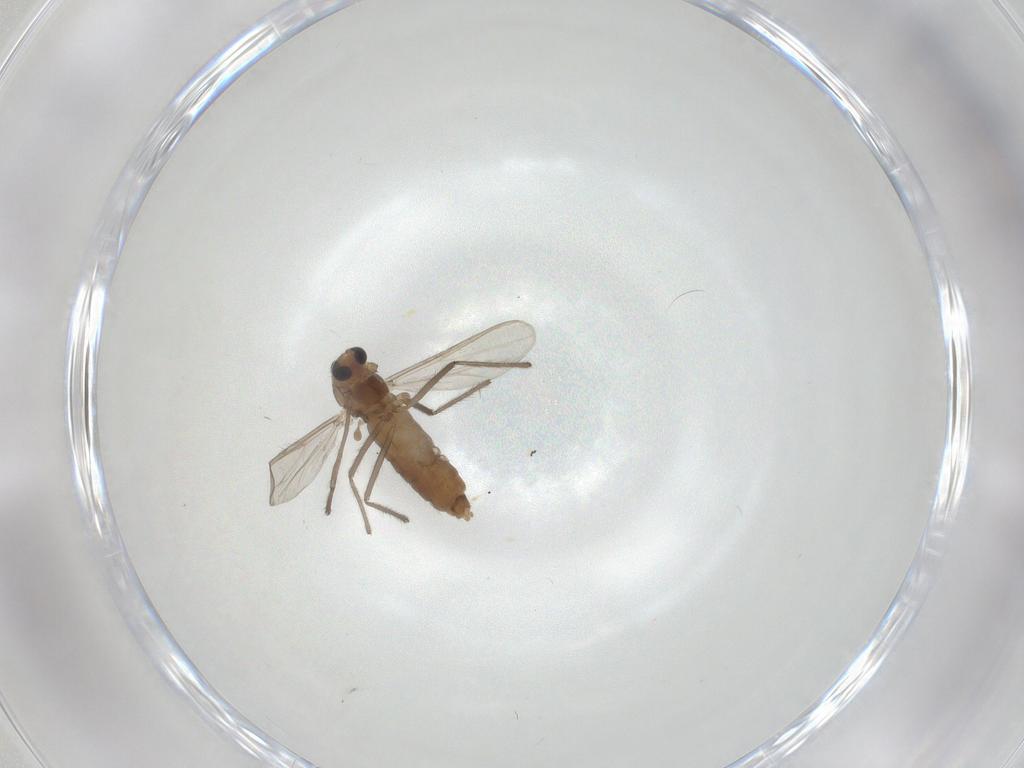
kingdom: Animalia
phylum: Arthropoda
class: Insecta
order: Diptera
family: Chironomidae
